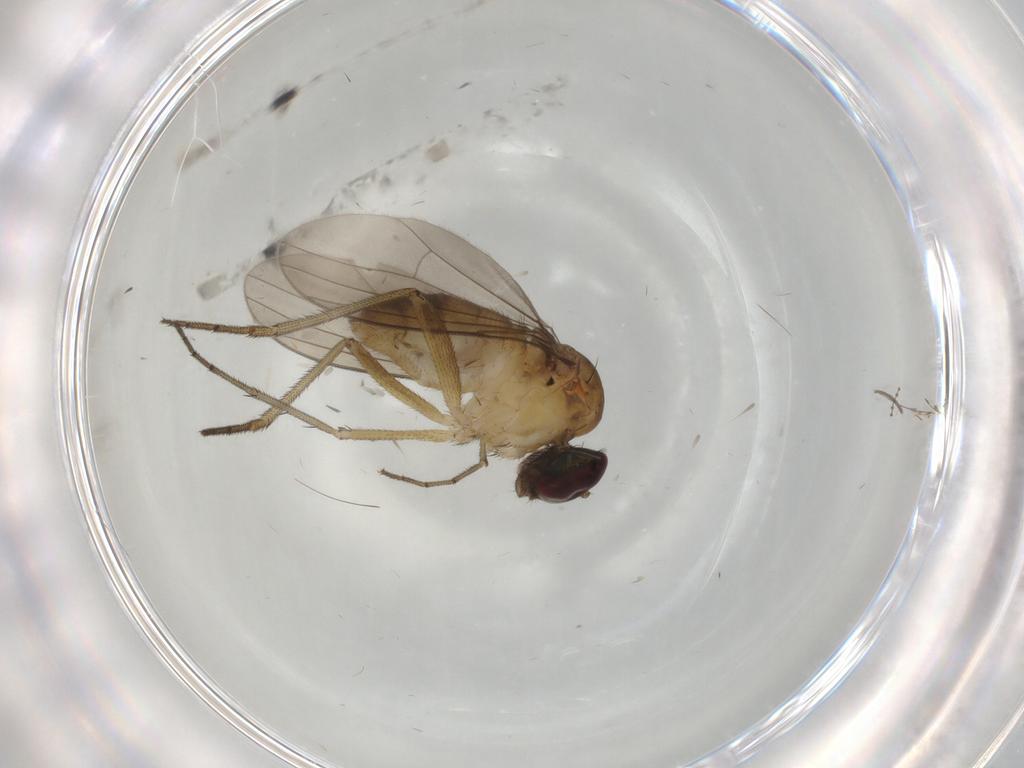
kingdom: Animalia
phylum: Arthropoda
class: Insecta
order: Diptera
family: Dolichopodidae
